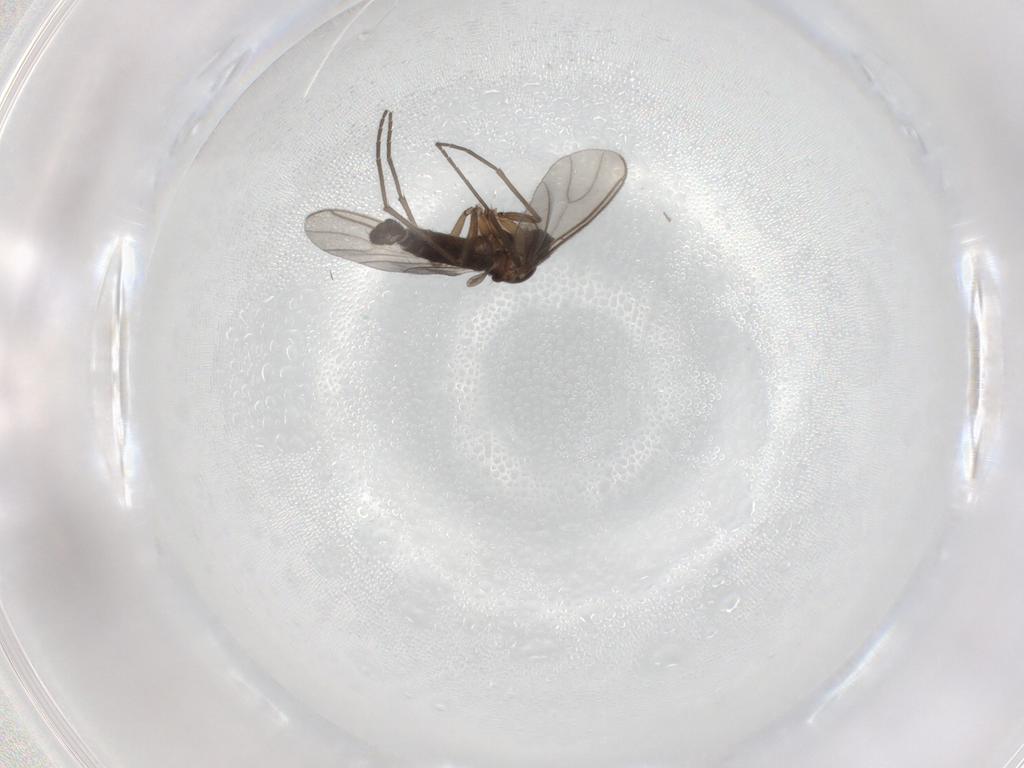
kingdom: Animalia
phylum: Arthropoda
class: Insecta
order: Diptera
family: Sciaridae
